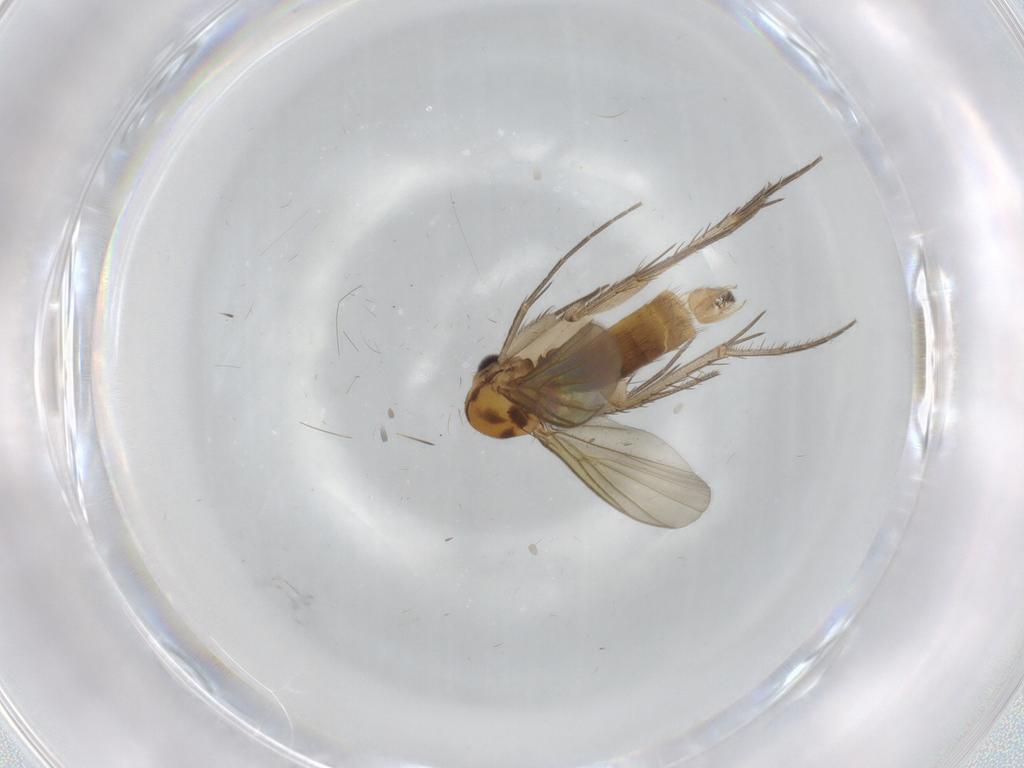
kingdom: Animalia
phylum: Arthropoda
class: Insecta
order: Diptera
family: Mycetophilidae
